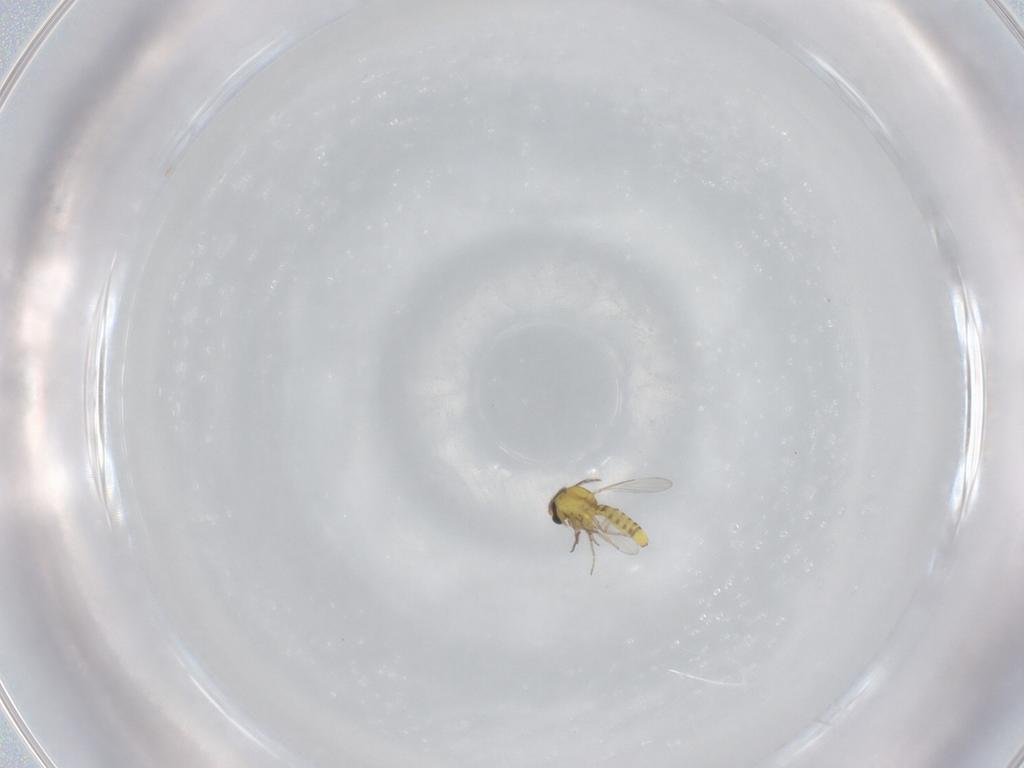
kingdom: Animalia
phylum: Arthropoda
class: Insecta
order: Diptera
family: Ceratopogonidae
